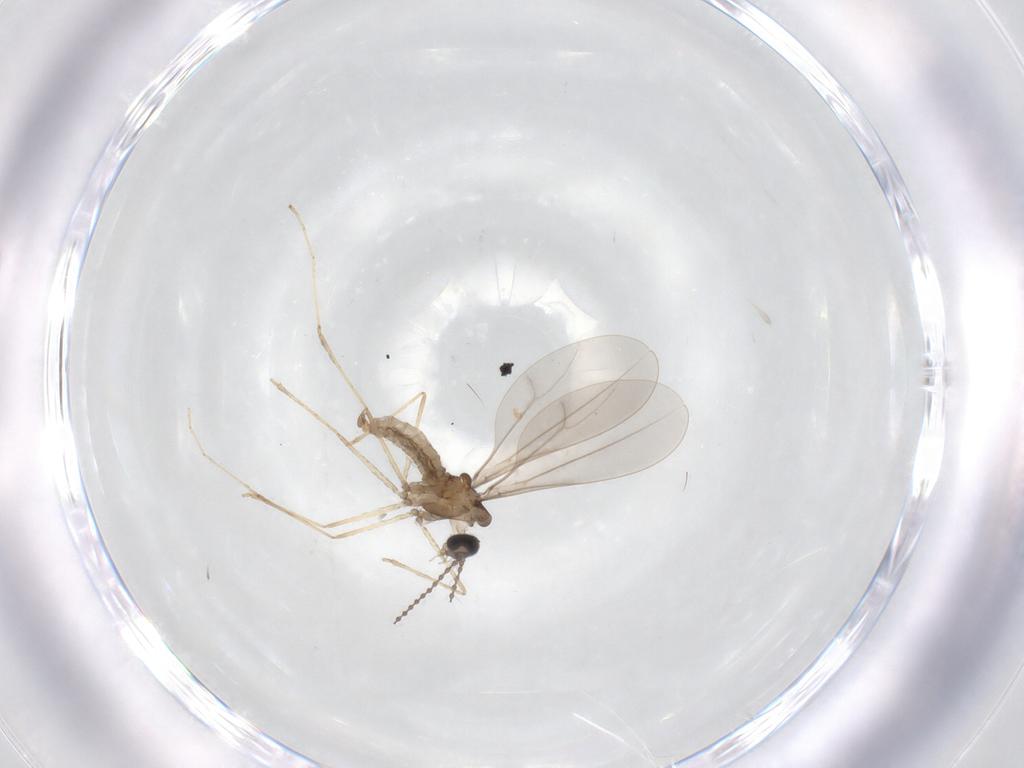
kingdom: Animalia
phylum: Arthropoda
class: Insecta
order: Diptera
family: Cecidomyiidae
